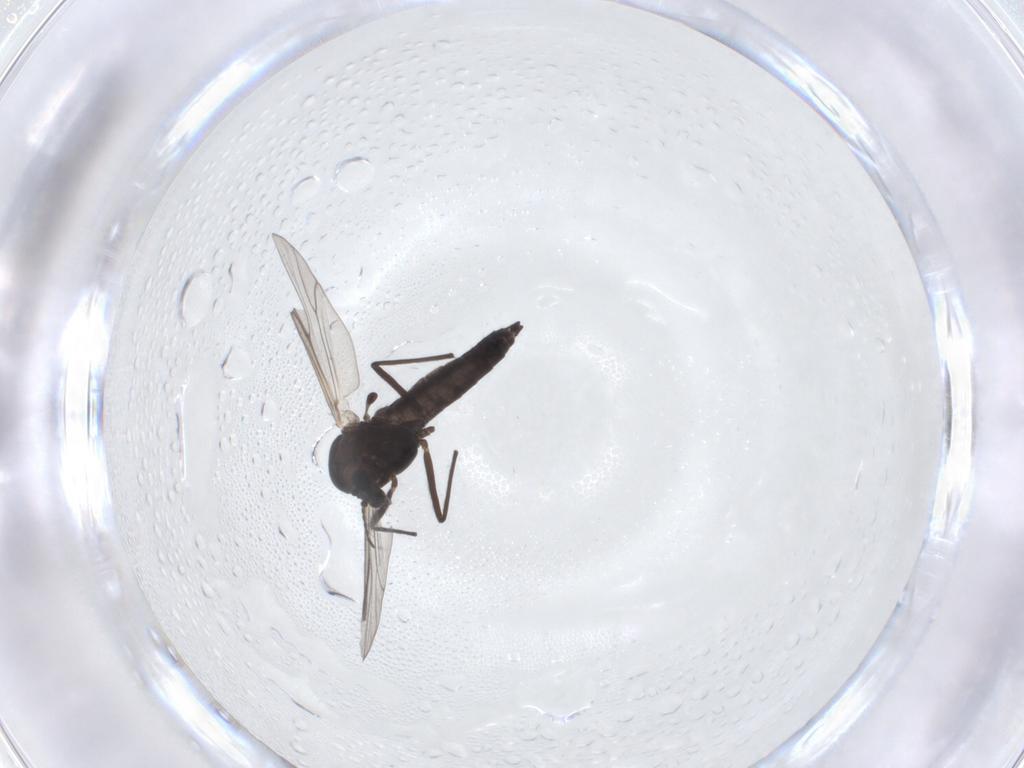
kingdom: Animalia
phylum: Arthropoda
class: Insecta
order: Diptera
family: Chironomidae
